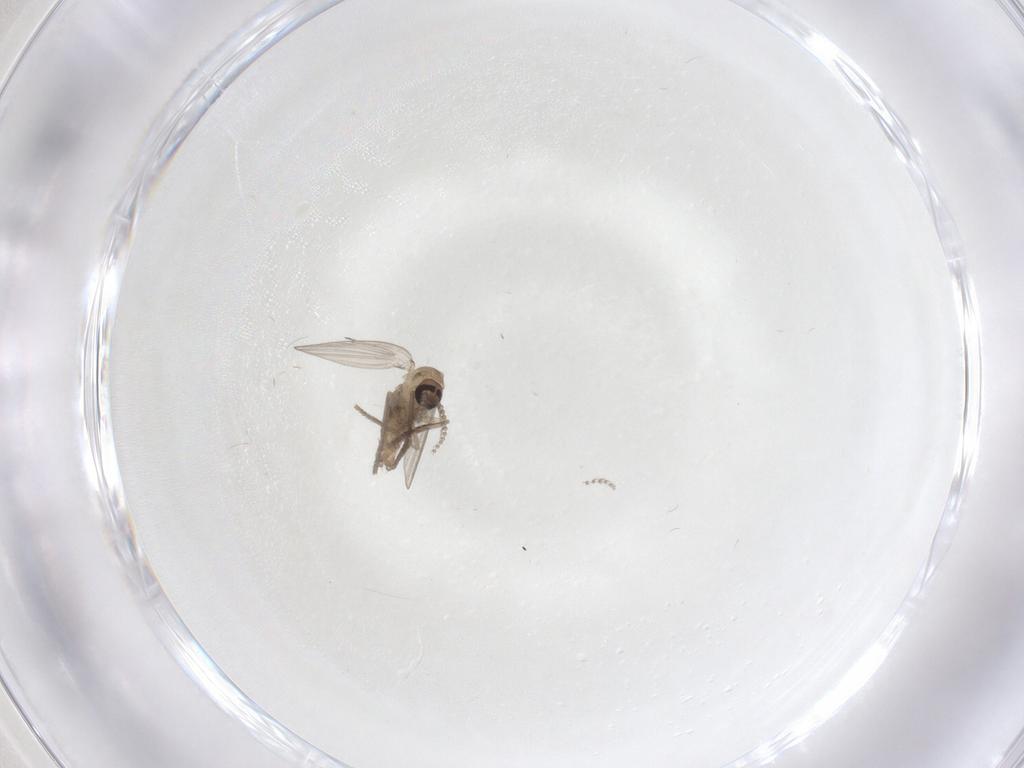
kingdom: Animalia
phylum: Arthropoda
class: Insecta
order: Diptera
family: Psychodidae
